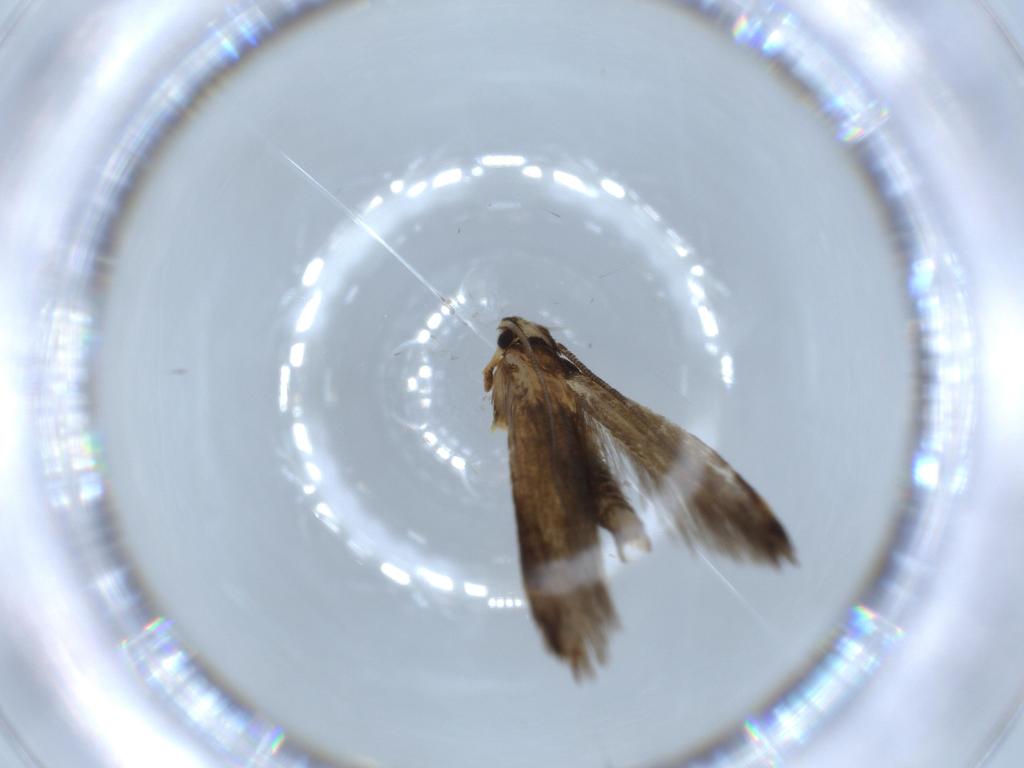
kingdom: Animalia
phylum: Arthropoda
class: Insecta
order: Lepidoptera
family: Tineidae
